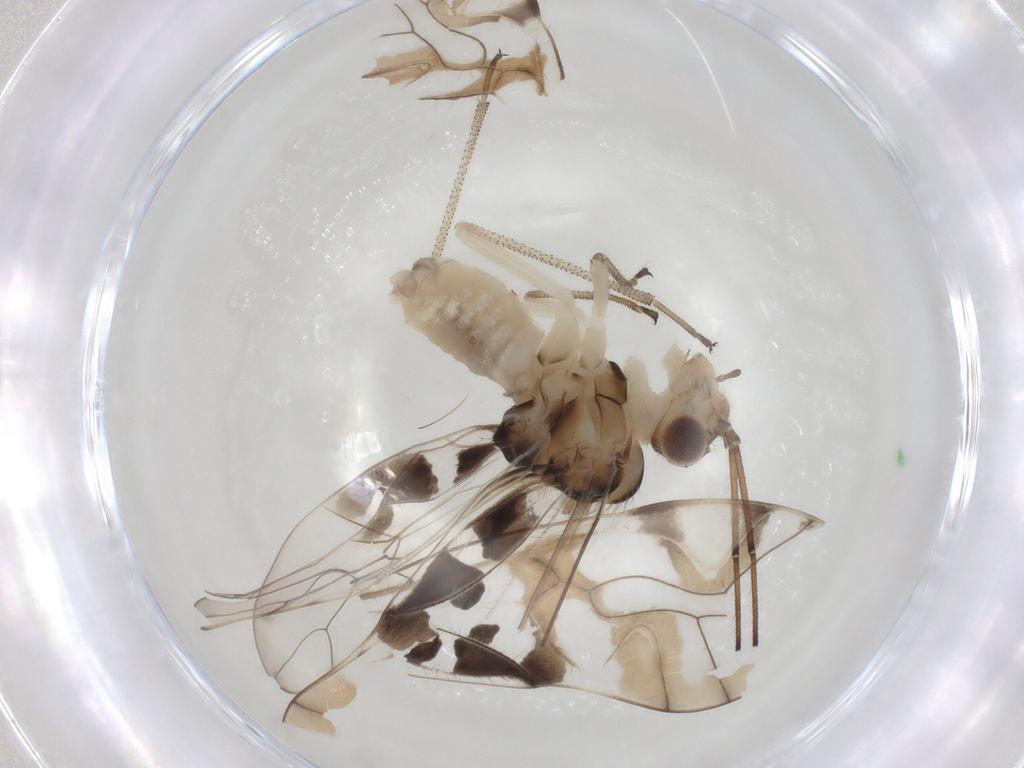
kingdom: Animalia
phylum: Arthropoda
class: Insecta
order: Psocodea
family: Amphipsocidae
